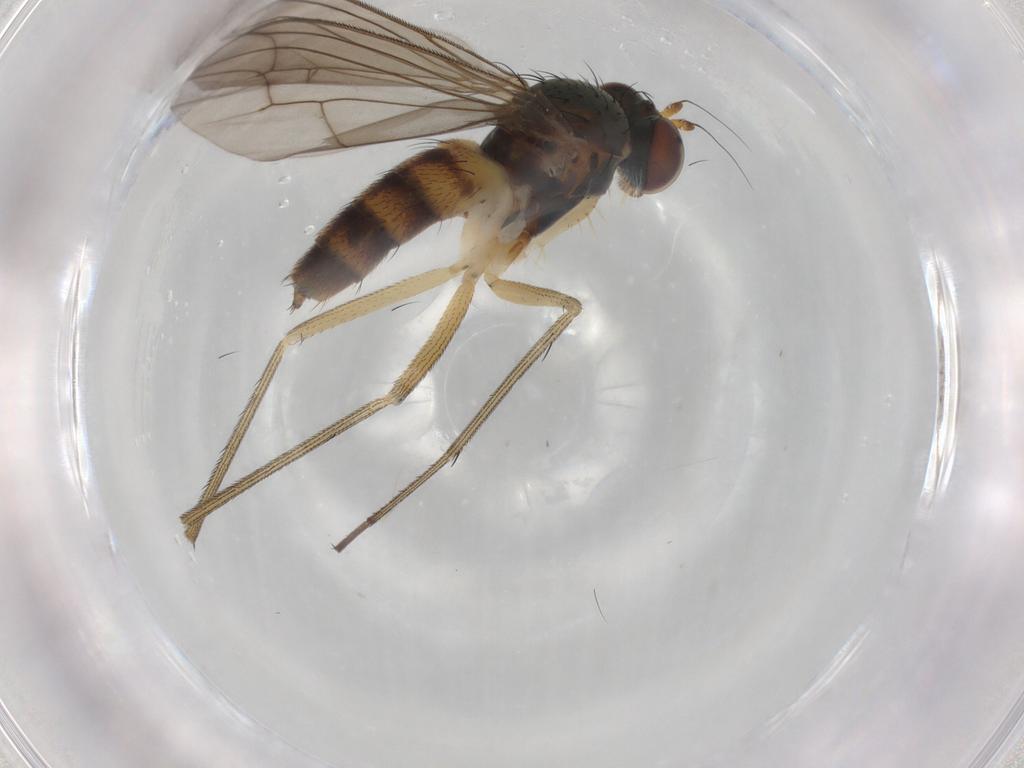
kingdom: Animalia
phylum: Arthropoda
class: Insecta
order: Diptera
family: Dolichopodidae
